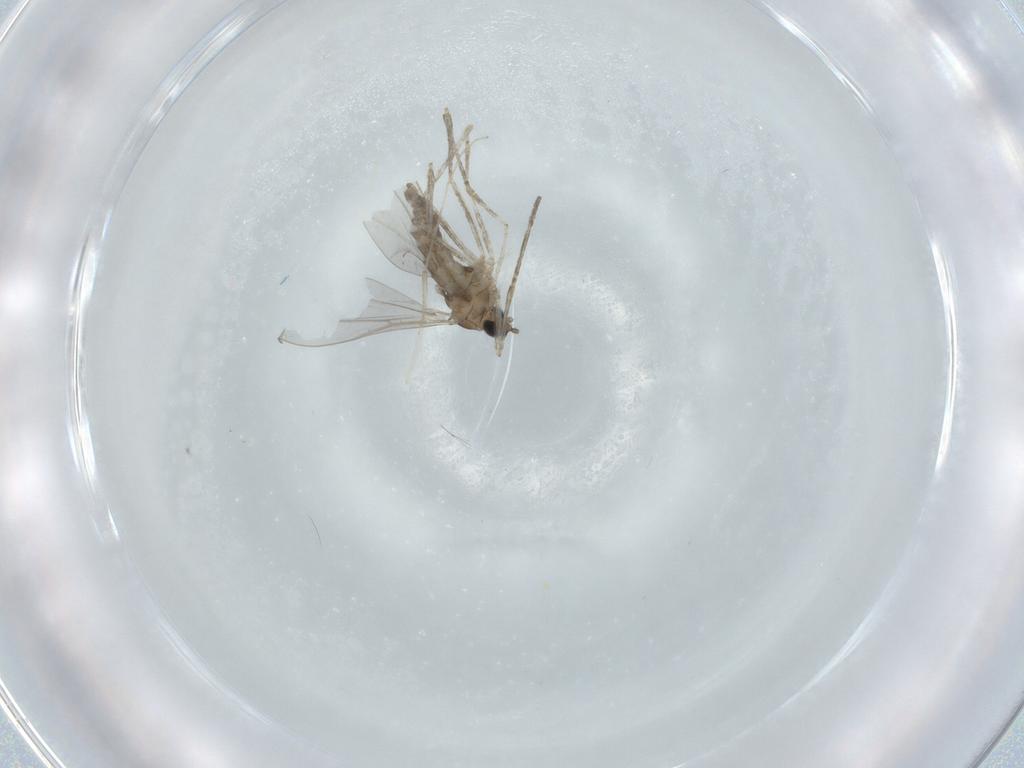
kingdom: Animalia
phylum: Arthropoda
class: Insecta
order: Diptera
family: Cecidomyiidae
